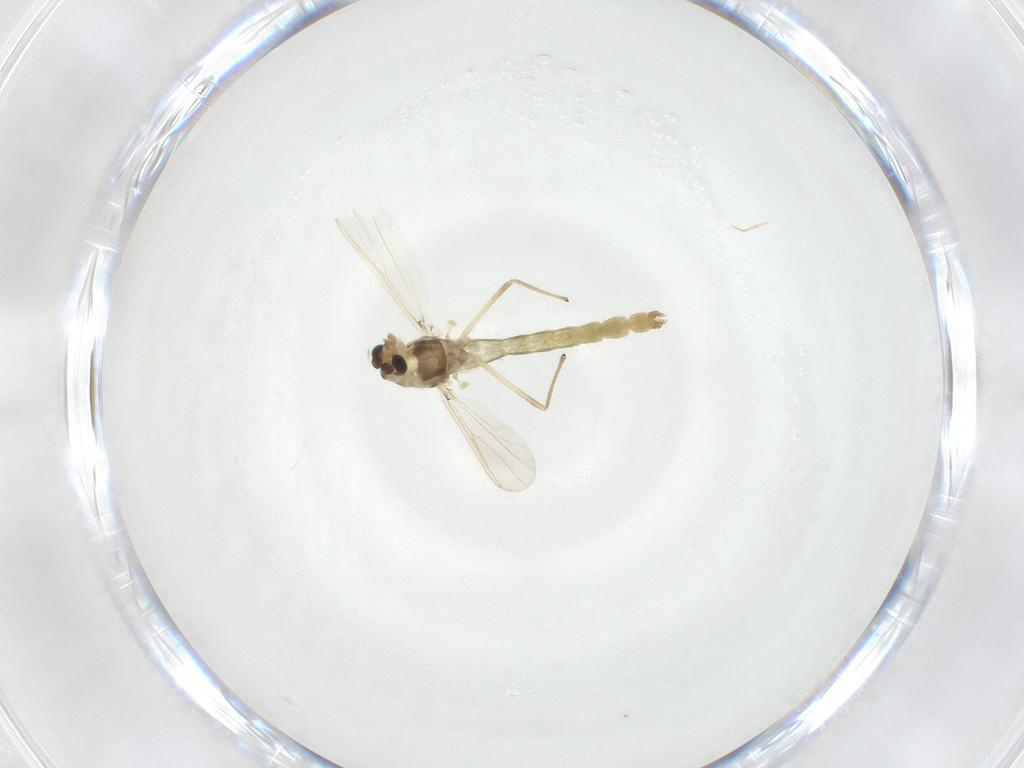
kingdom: Animalia
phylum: Arthropoda
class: Insecta
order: Diptera
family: Chironomidae
